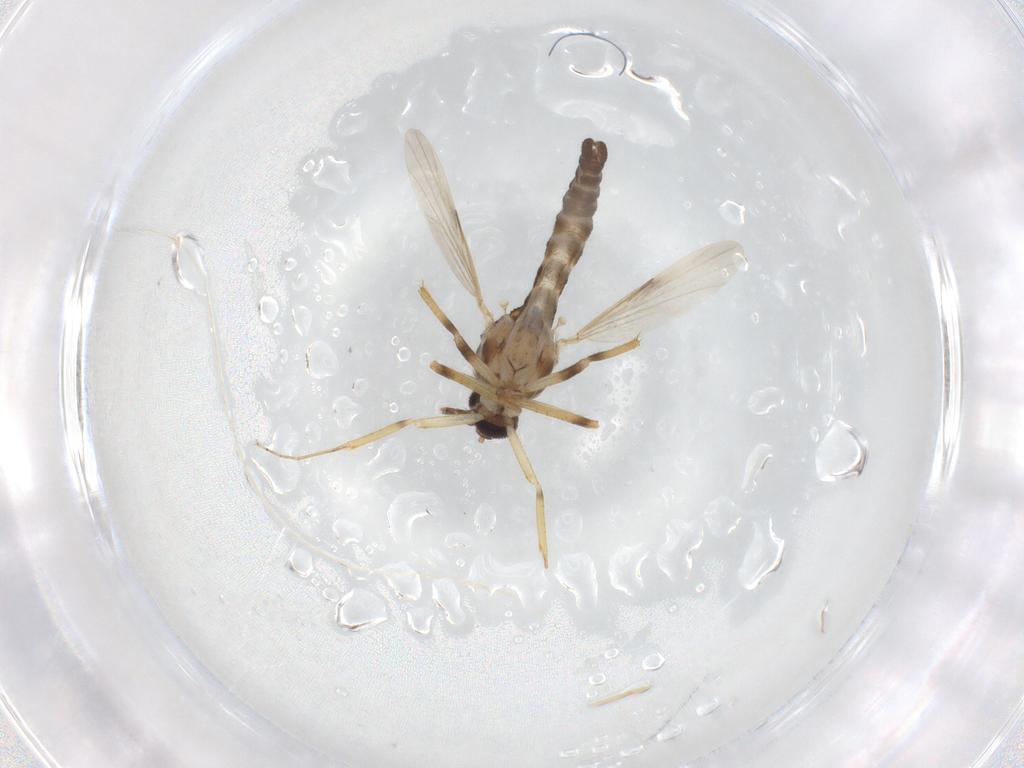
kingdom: Animalia
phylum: Arthropoda
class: Insecta
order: Diptera
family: Ceratopogonidae
